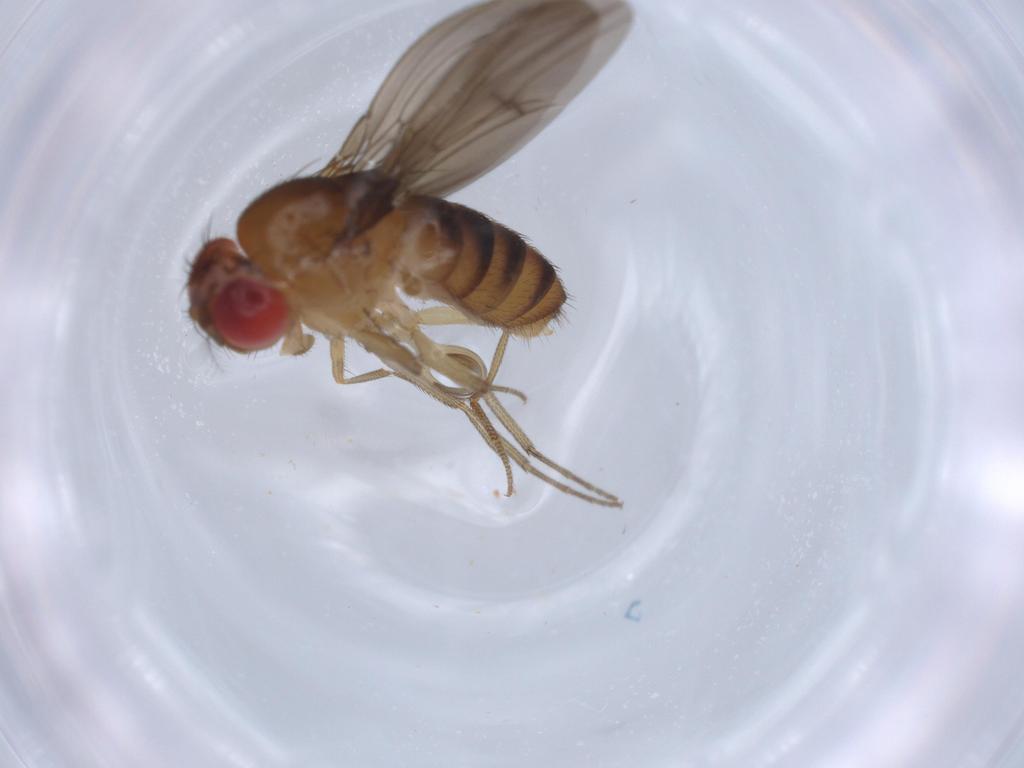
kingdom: Animalia
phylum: Arthropoda
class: Insecta
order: Diptera
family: Drosophilidae
